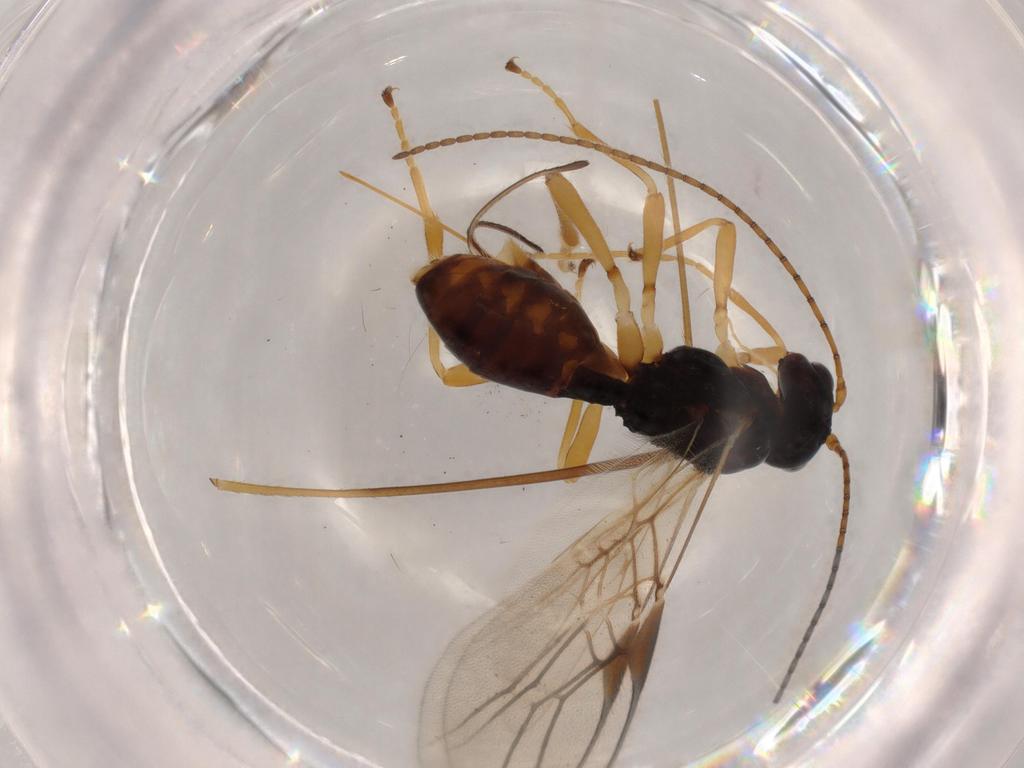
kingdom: Animalia
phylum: Arthropoda
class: Insecta
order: Hymenoptera
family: Braconidae
